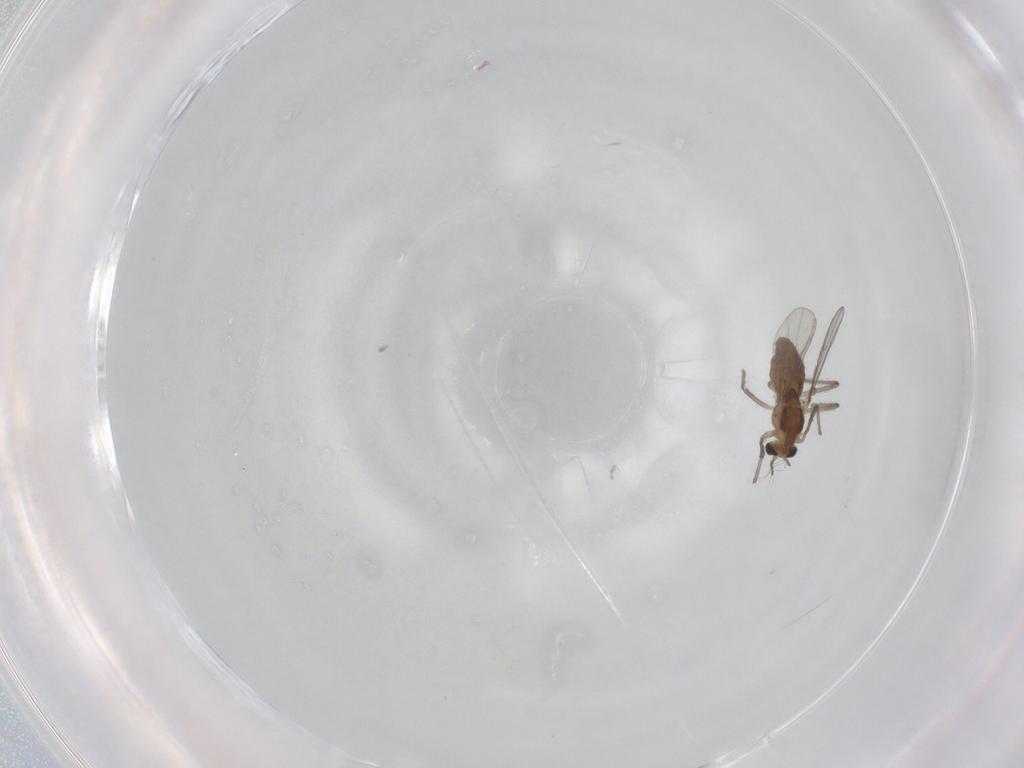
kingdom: Animalia
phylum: Arthropoda
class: Insecta
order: Diptera
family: Chironomidae
